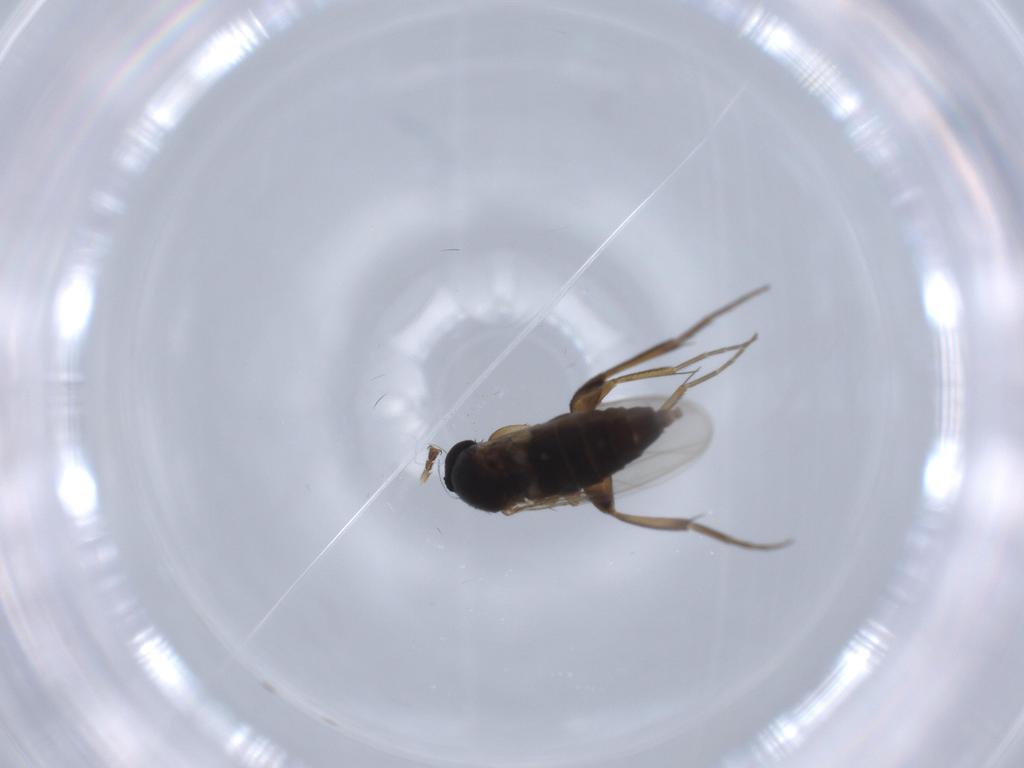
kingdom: Animalia
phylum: Arthropoda
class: Insecta
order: Diptera
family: Phoridae
